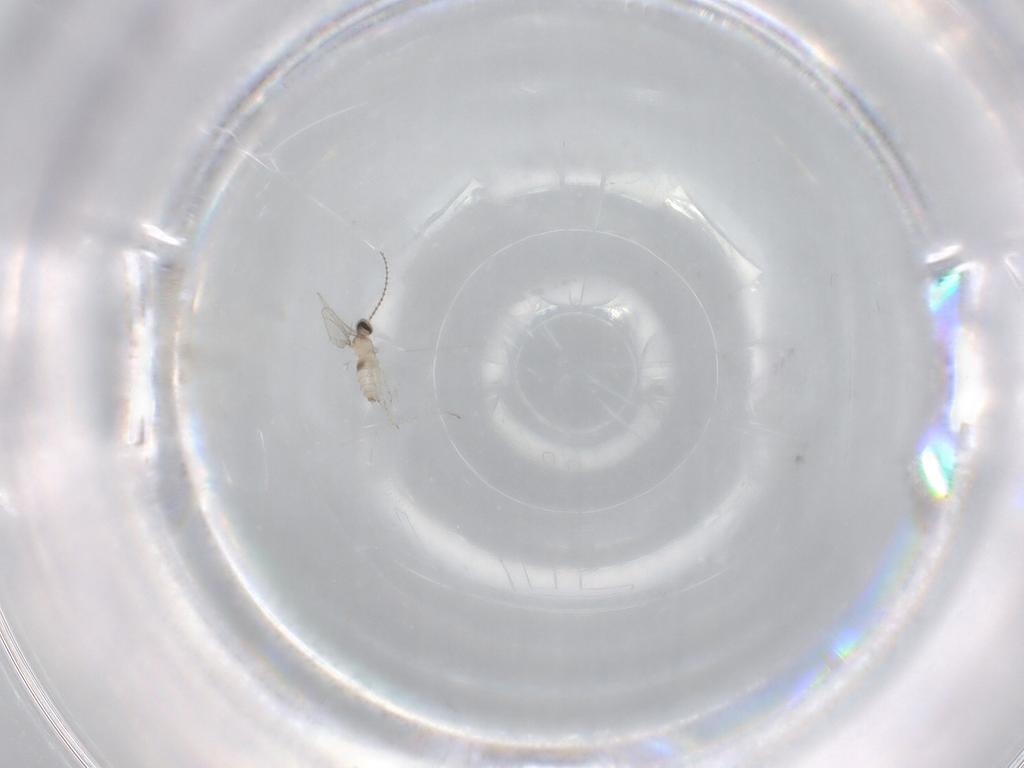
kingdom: Animalia
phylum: Arthropoda
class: Insecta
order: Diptera
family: Cecidomyiidae
